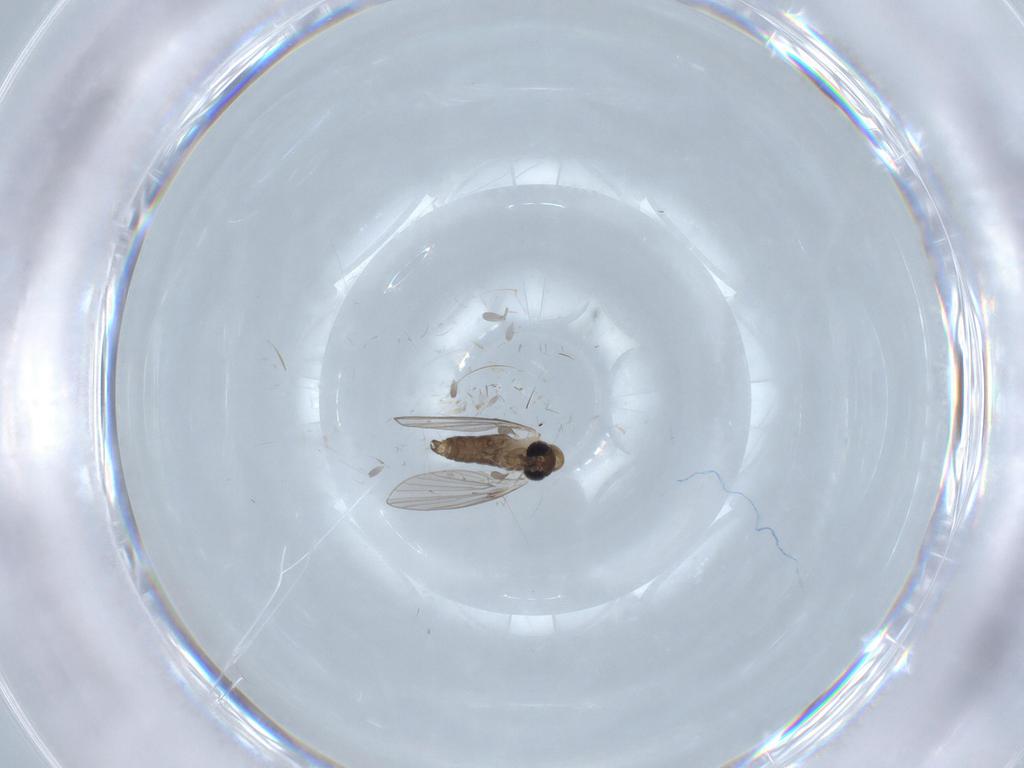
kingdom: Animalia
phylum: Arthropoda
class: Insecta
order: Diptera
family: Psychodidae
